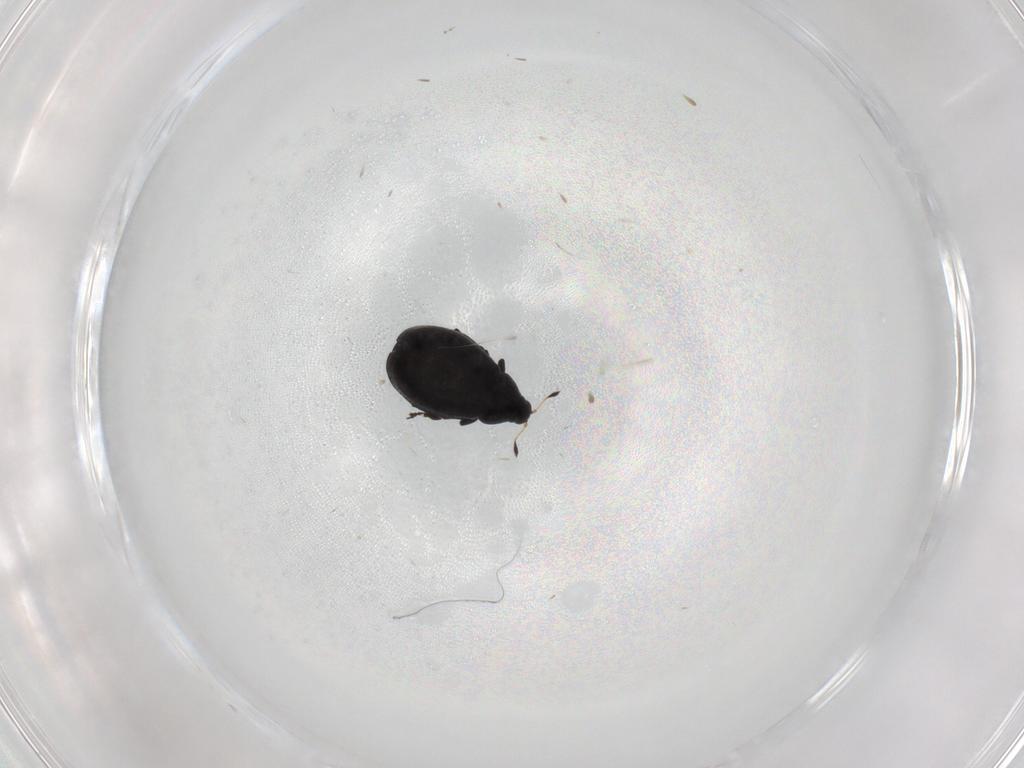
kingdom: Animalia
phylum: Arthropoda
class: Insecta
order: Coleoptera
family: Curculionidae
